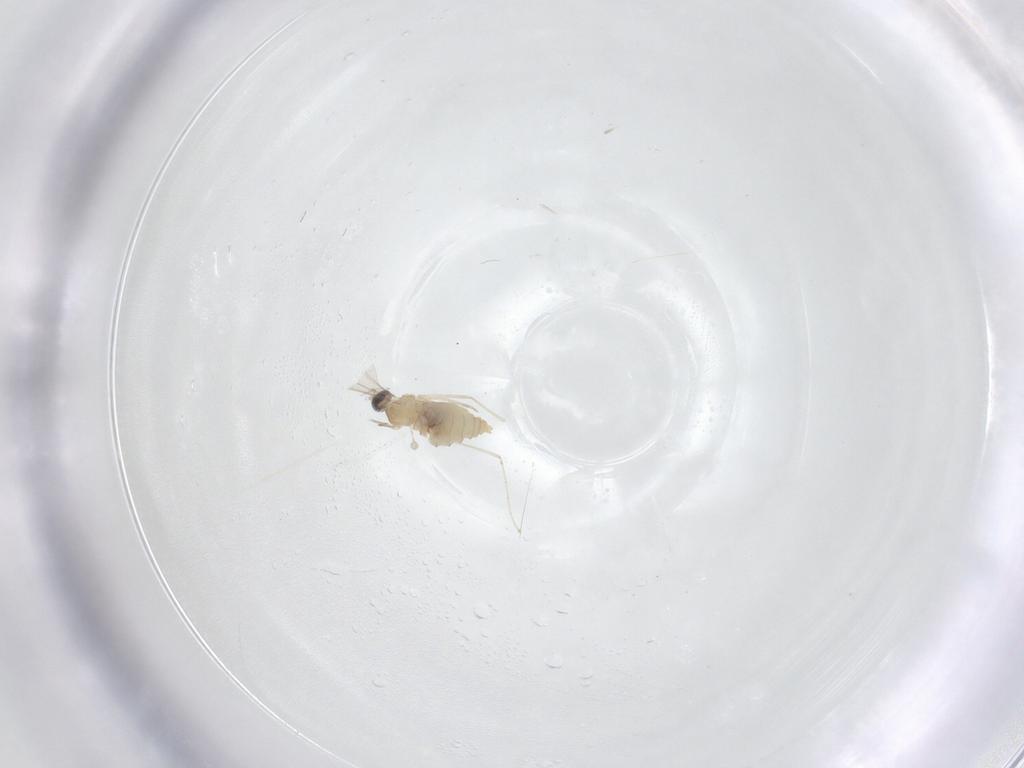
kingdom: Animalia
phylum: Arthropoda
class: Insecta
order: Diptera
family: Cecidomyiidae
